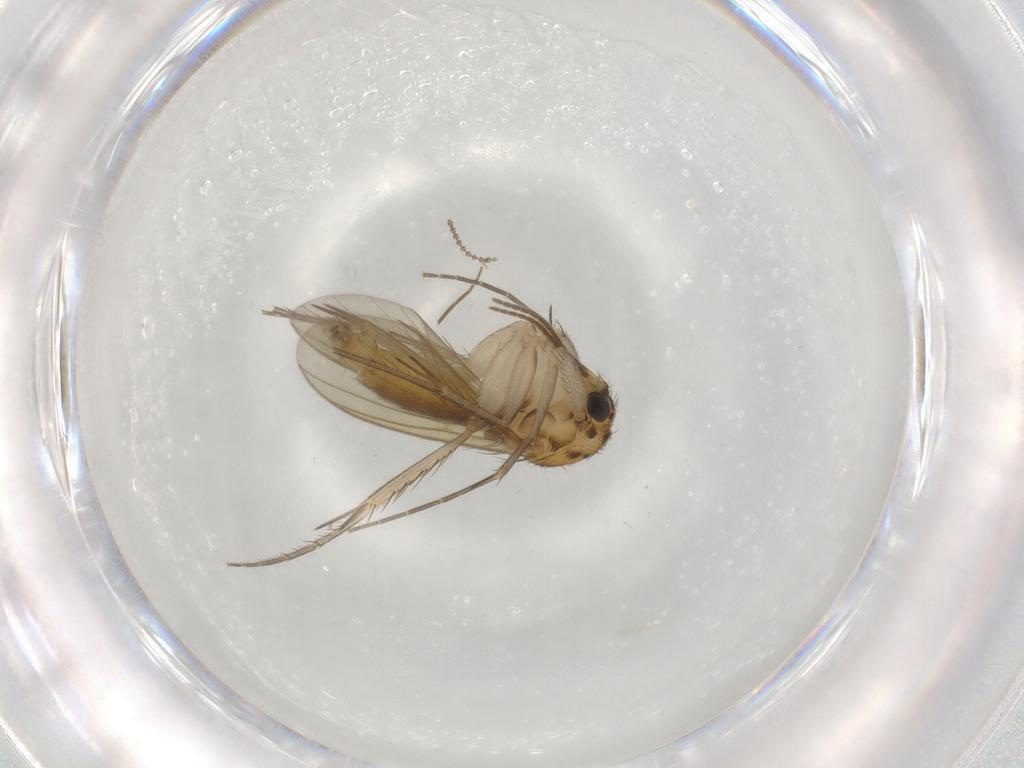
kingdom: Animalia
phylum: Arthropoda
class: Insecta
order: Diptera
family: Mycetophilidae
